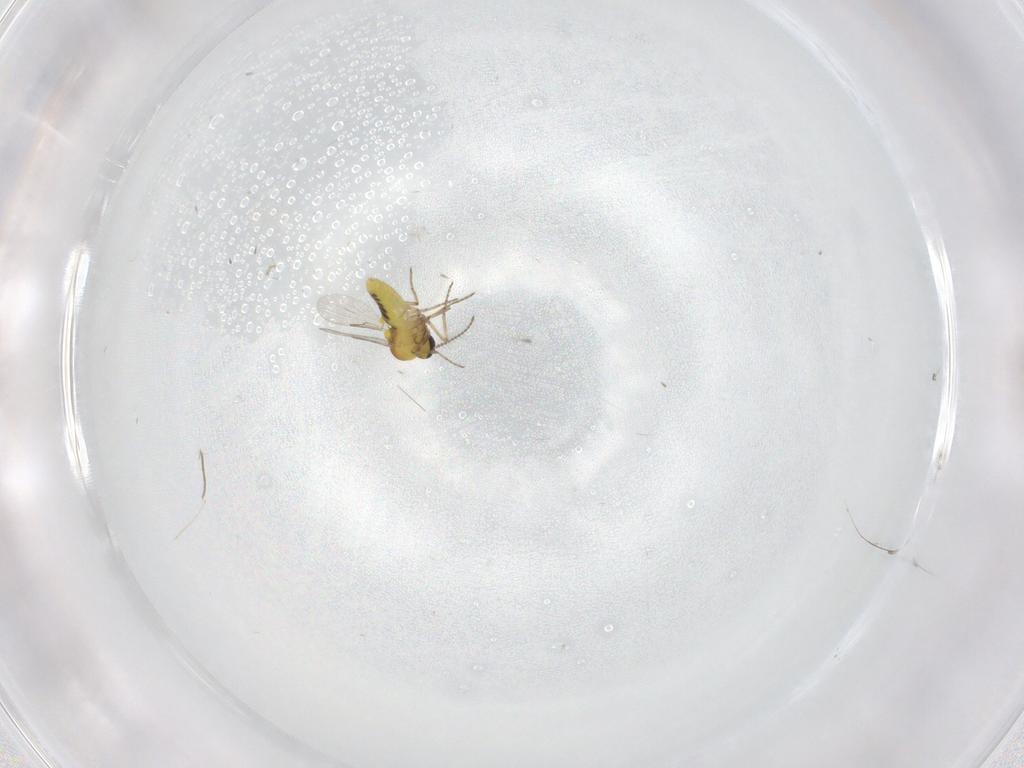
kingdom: Animalia
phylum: Arthropoda
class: Insecta
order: Diptera
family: Ceratopogonidae
